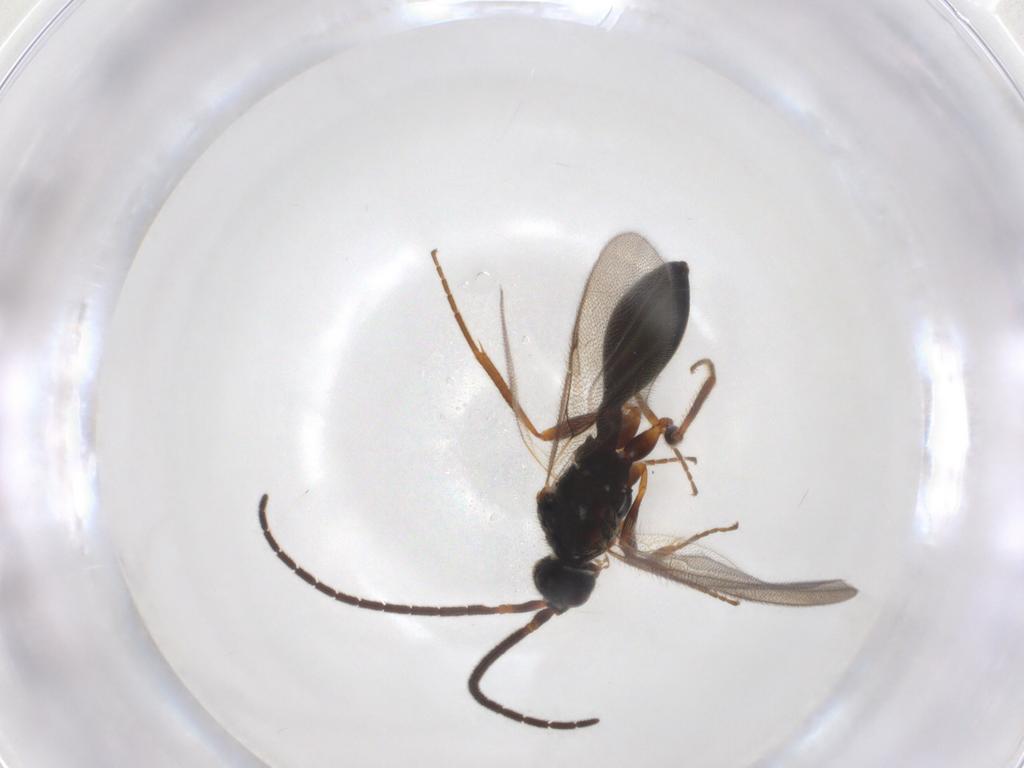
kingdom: Animalia
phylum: Arthropoda
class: Insecta
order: Hymenoptera
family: Diapriidae
